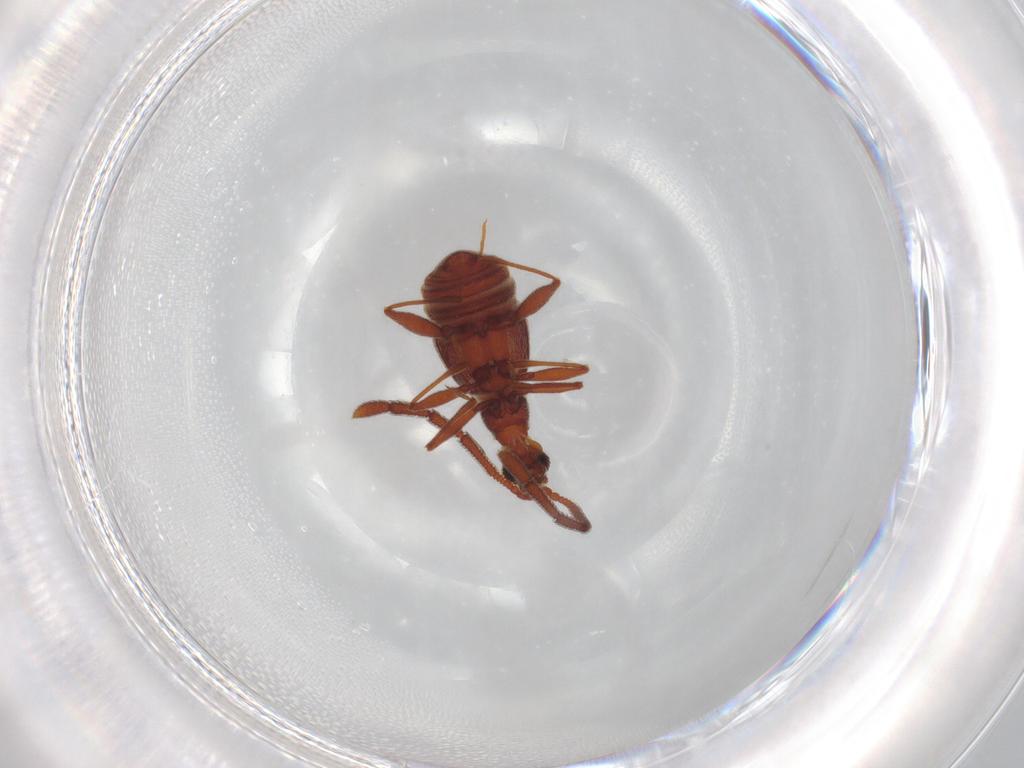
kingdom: Animalia
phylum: Arthropoda
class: Insecta
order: Coleoptera
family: Staphylinidae
